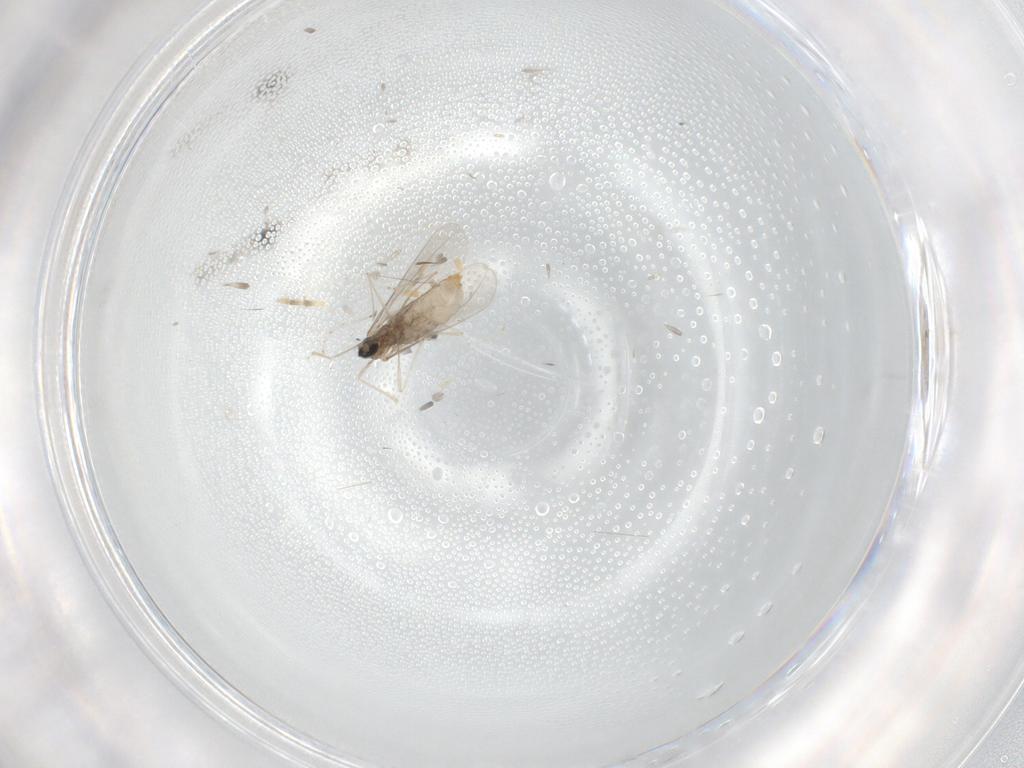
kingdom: Animalia
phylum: Arthropoda
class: Insecta
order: Diptera
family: Cecidomyiidae
